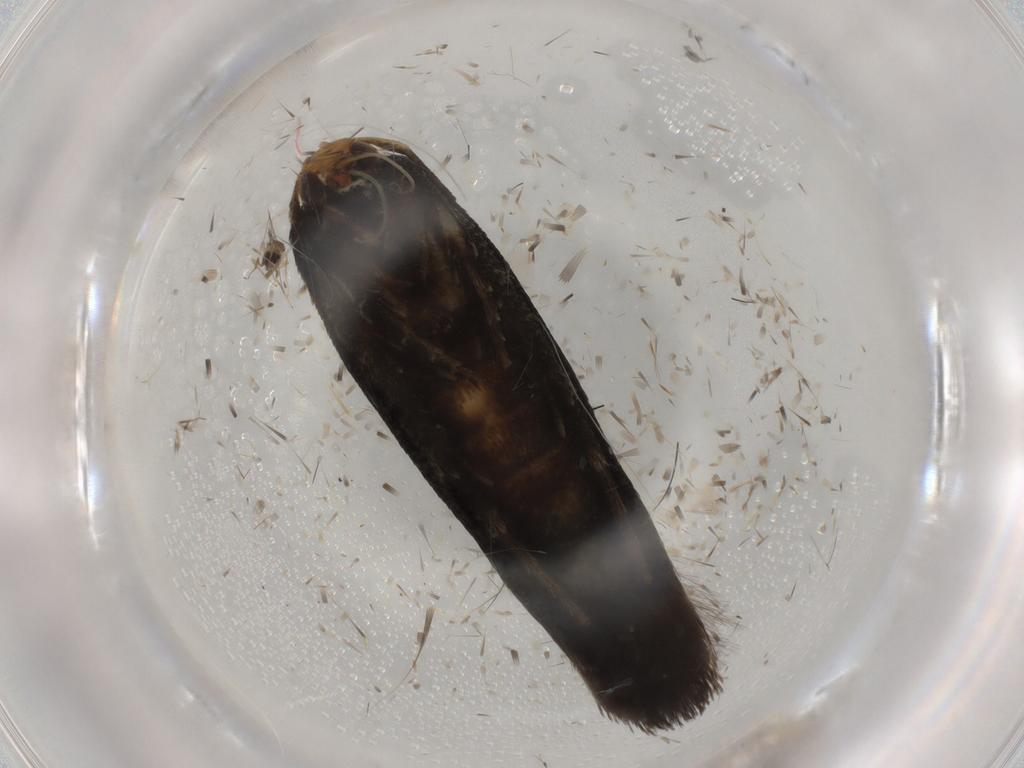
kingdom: Animalia
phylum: Arthropoda
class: Insecta
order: Lepidoptera
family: Cosmopterigidae
